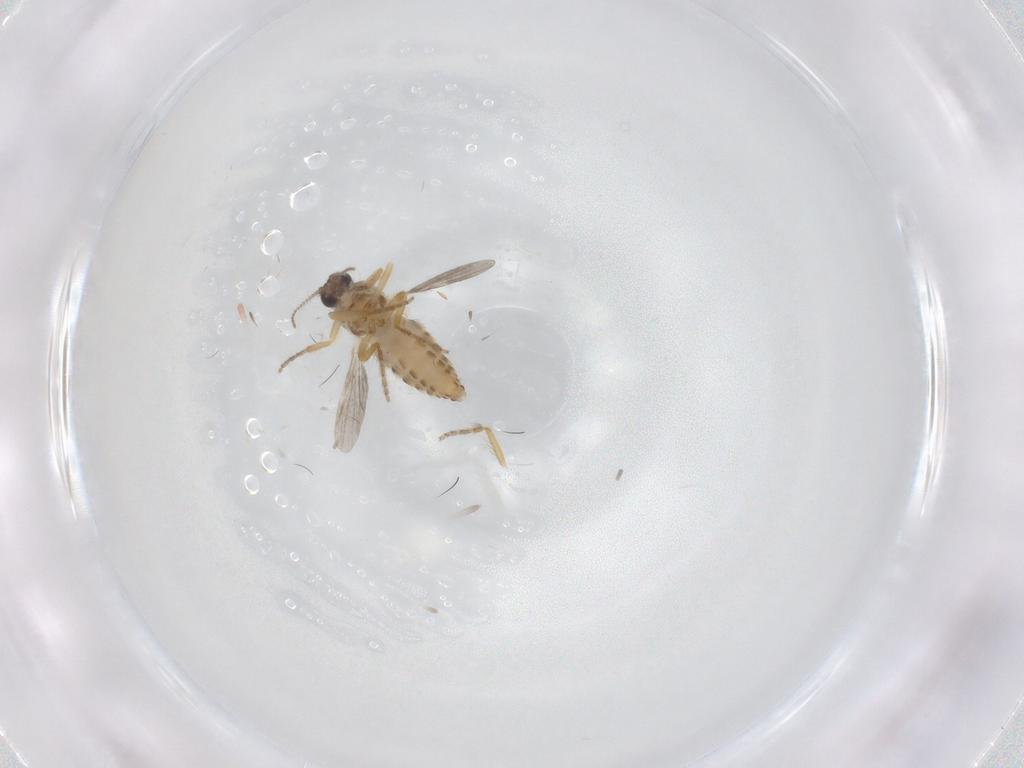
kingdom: Animalia
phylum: Arthropoda
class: Insecta
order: Diptera
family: Ceratopogonidae
